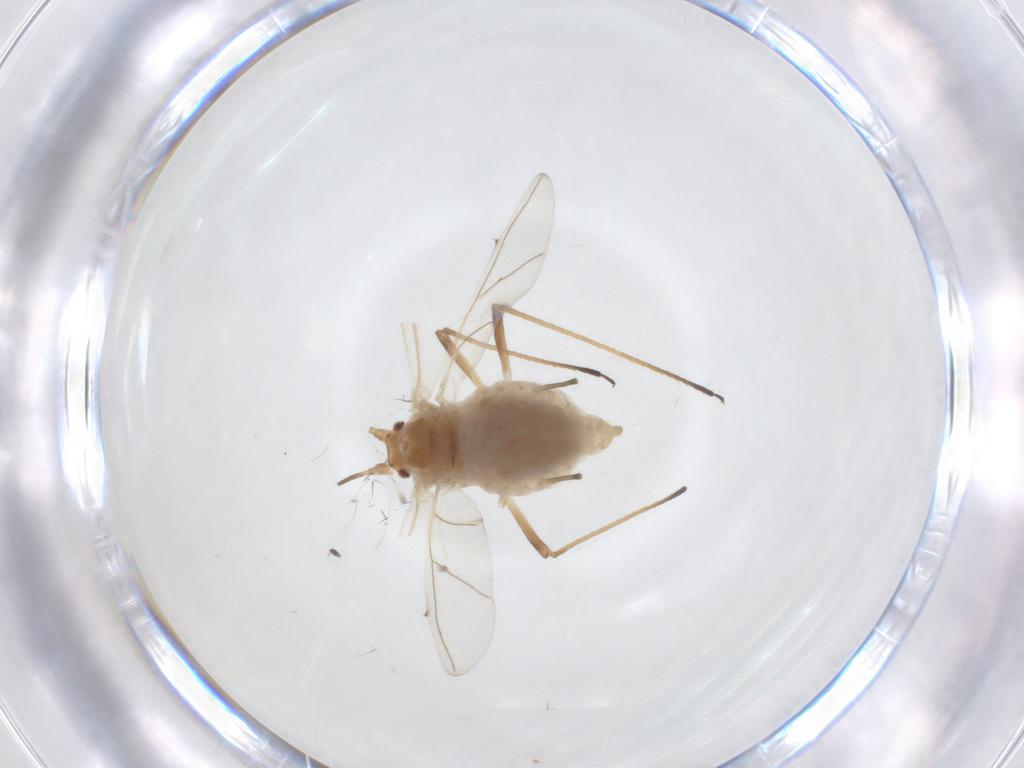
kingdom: Animalia
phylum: Arthropoda
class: Insecta
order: Hemiptera
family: Aphididae
